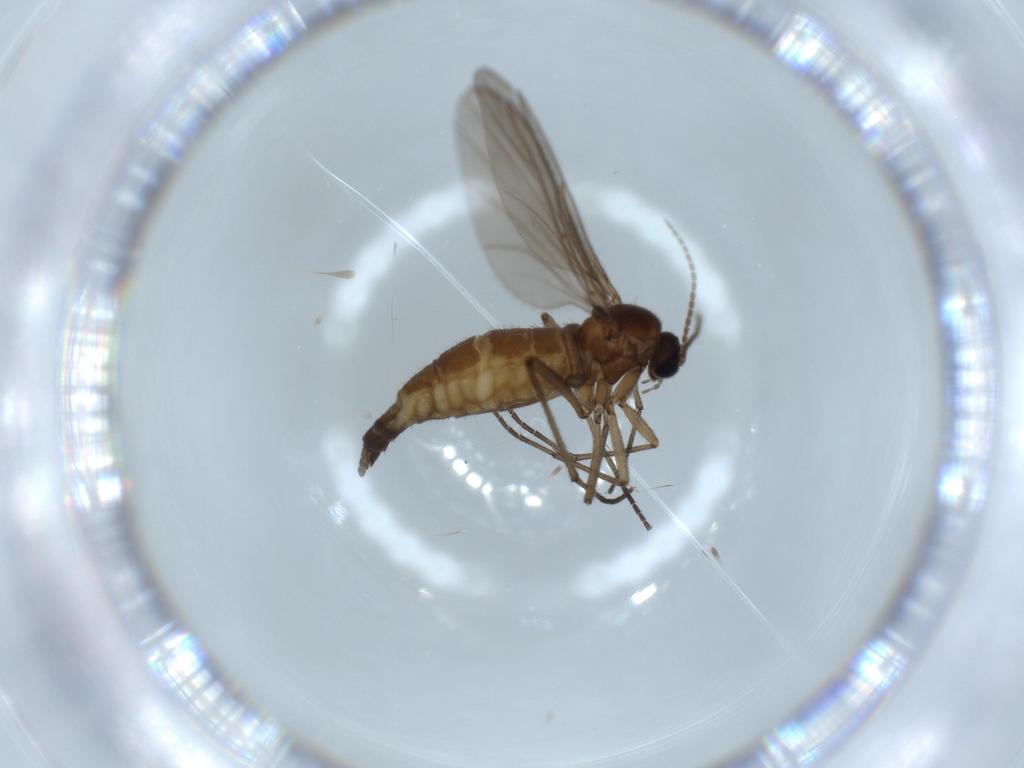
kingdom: Animalia
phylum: Arthropoda
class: Insecta
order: Diptera
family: Sciaridae
